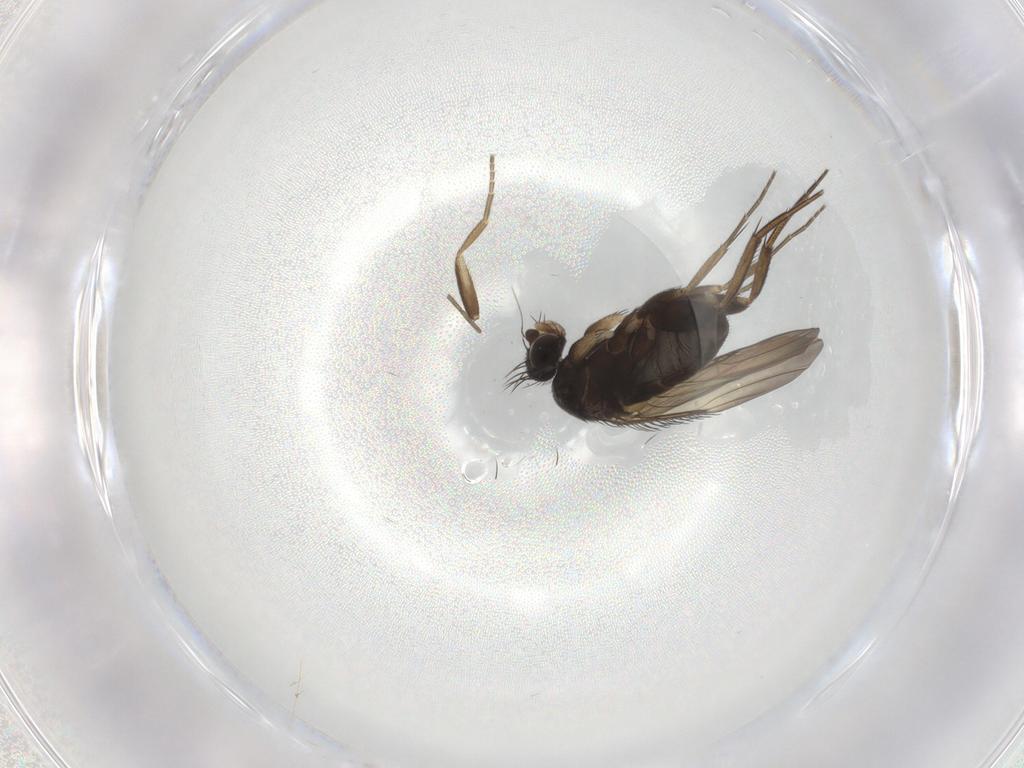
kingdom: Animalia
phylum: Arthropoda
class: Insecta
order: Diptera
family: Phoridae
